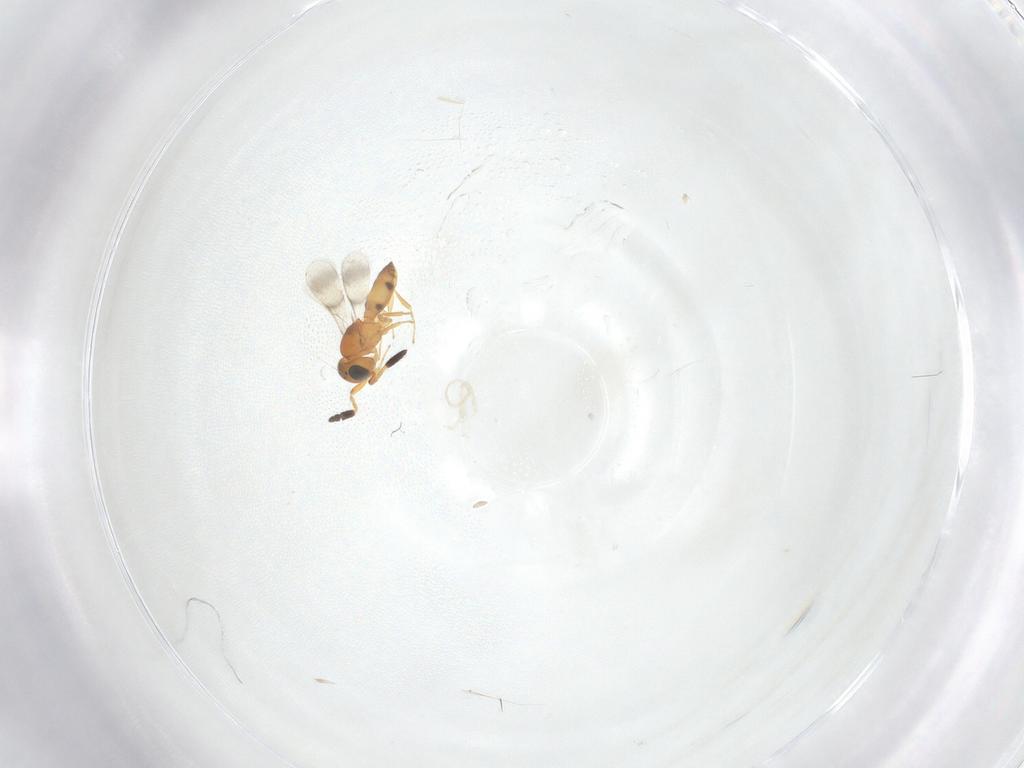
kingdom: Animalia
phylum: Arthropoda
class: Insecta
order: Hymenoptera
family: Scelionidae
